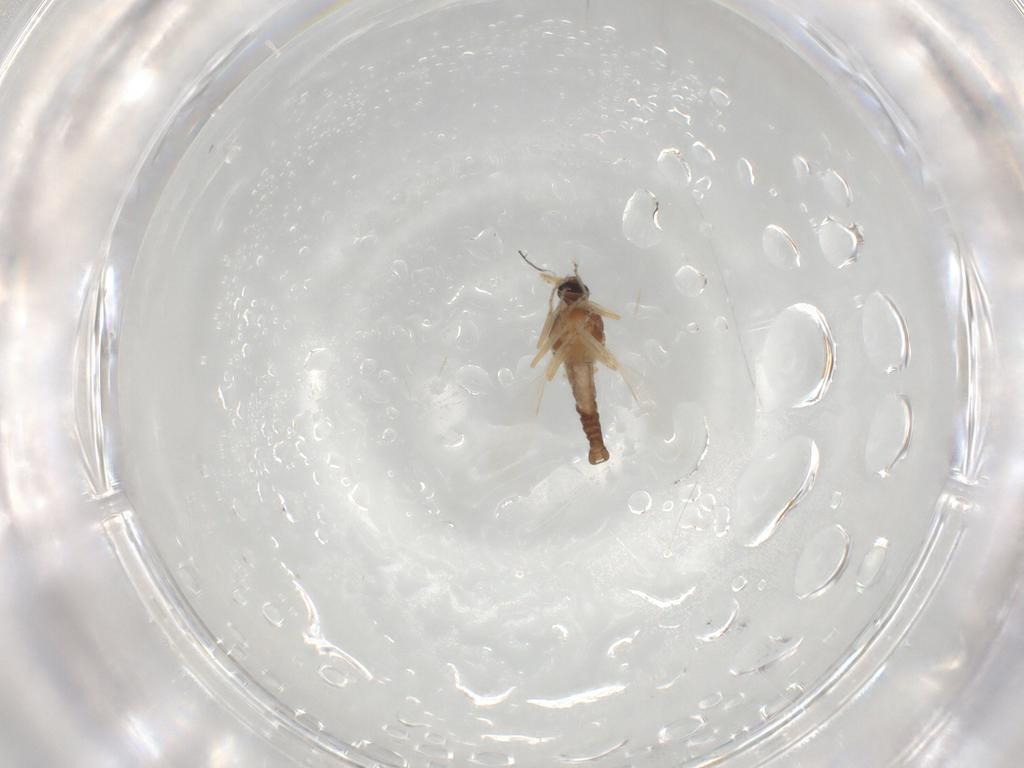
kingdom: Animalia
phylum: Arthropoda
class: Insecta
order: Diptera
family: Ceratopogonidae
